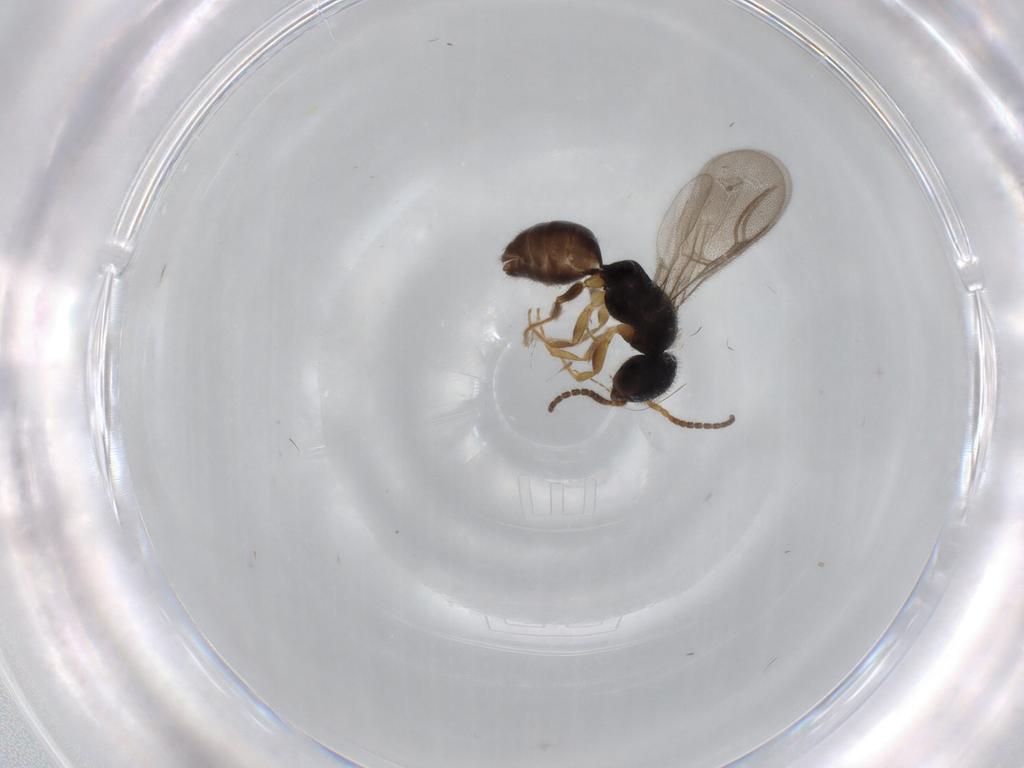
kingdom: Animalia
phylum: Arthropoda
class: Insecta
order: Hymenoptera
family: Bethylidae
